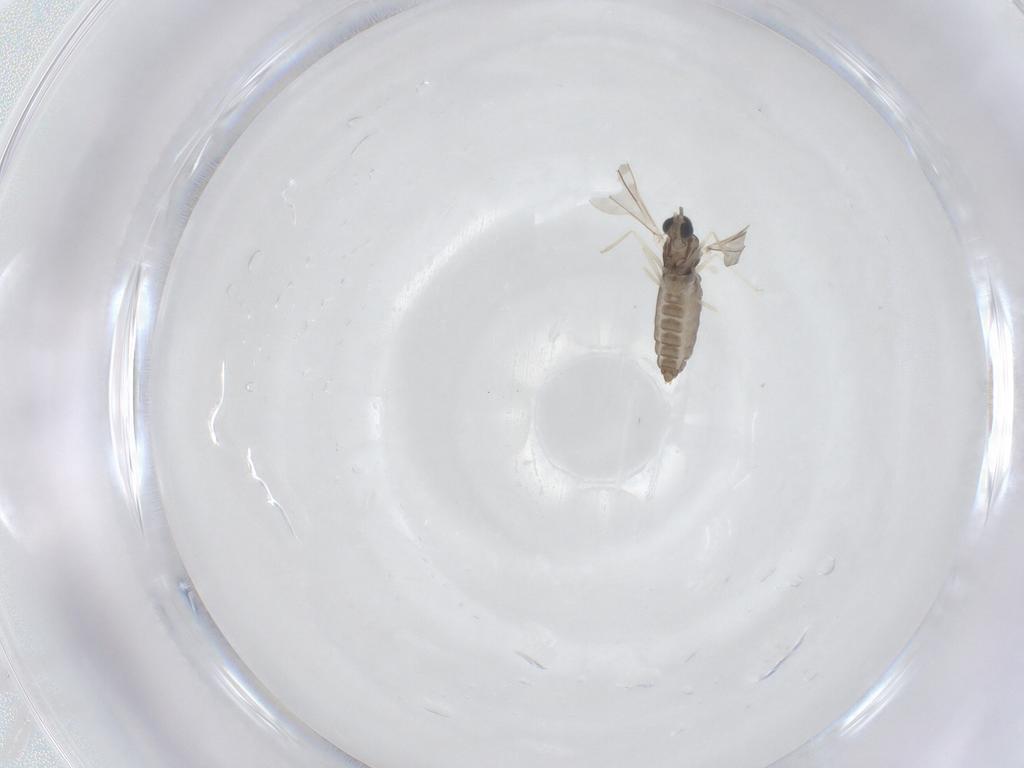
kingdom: Animalia
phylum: Arthropoda
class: Insecta
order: Diptera
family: Cecidomyiidae
